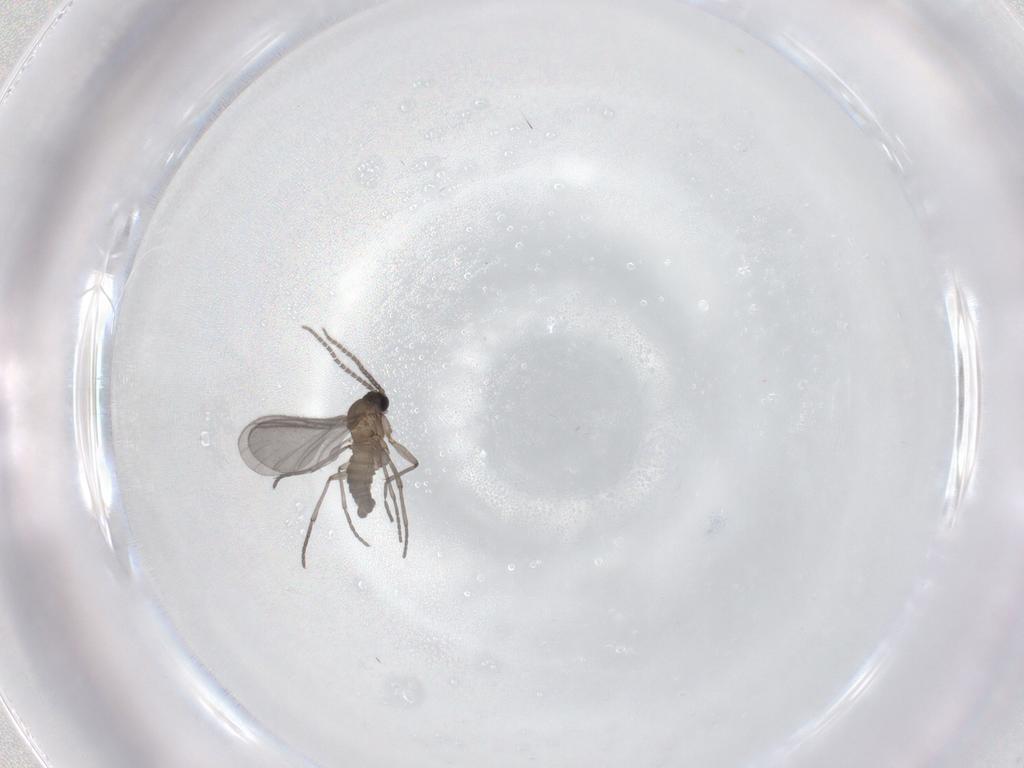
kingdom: Animalia
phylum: Arthropoda
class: Insecta
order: Diptera
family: Sciaridae
